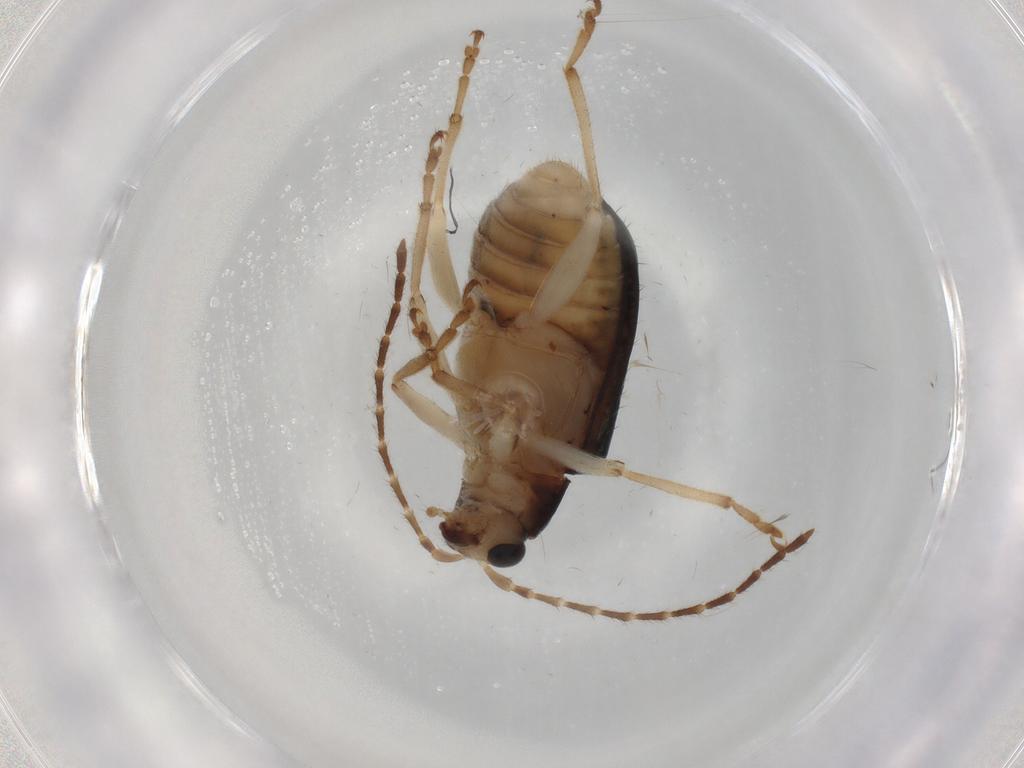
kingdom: Animalia
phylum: Arthropoda
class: Insecta
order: Coleoptera
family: Chrysomelidae
